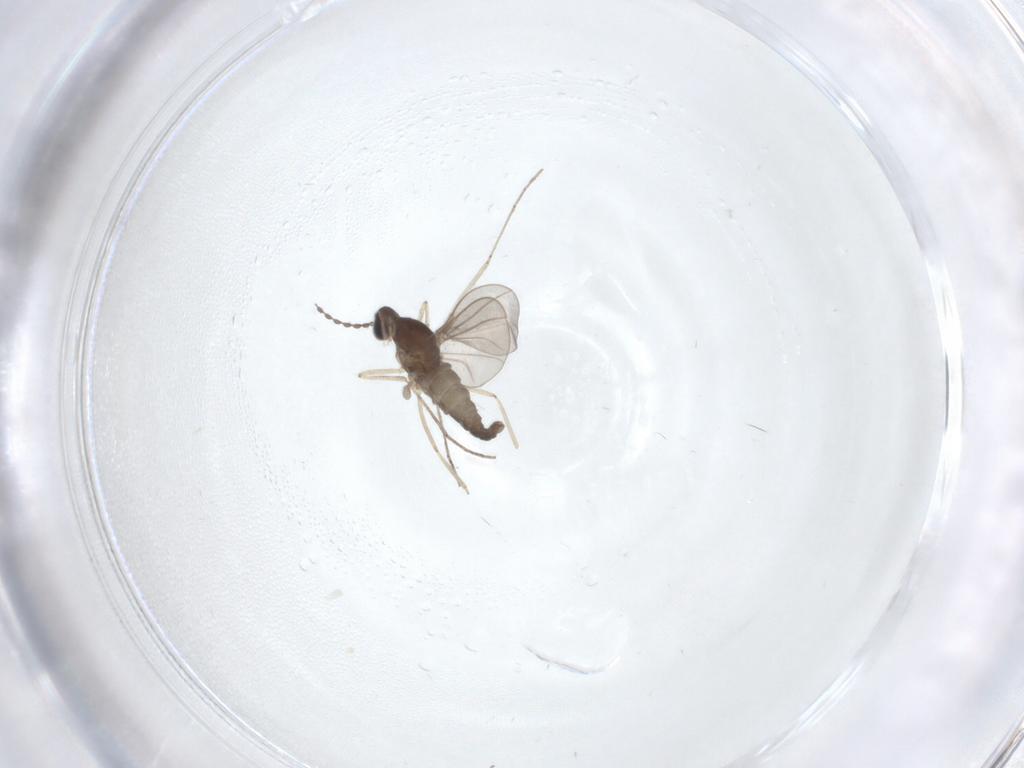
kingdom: Animalia
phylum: Arthropoda
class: Insecta
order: Diptera
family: Cecidomyiidae
